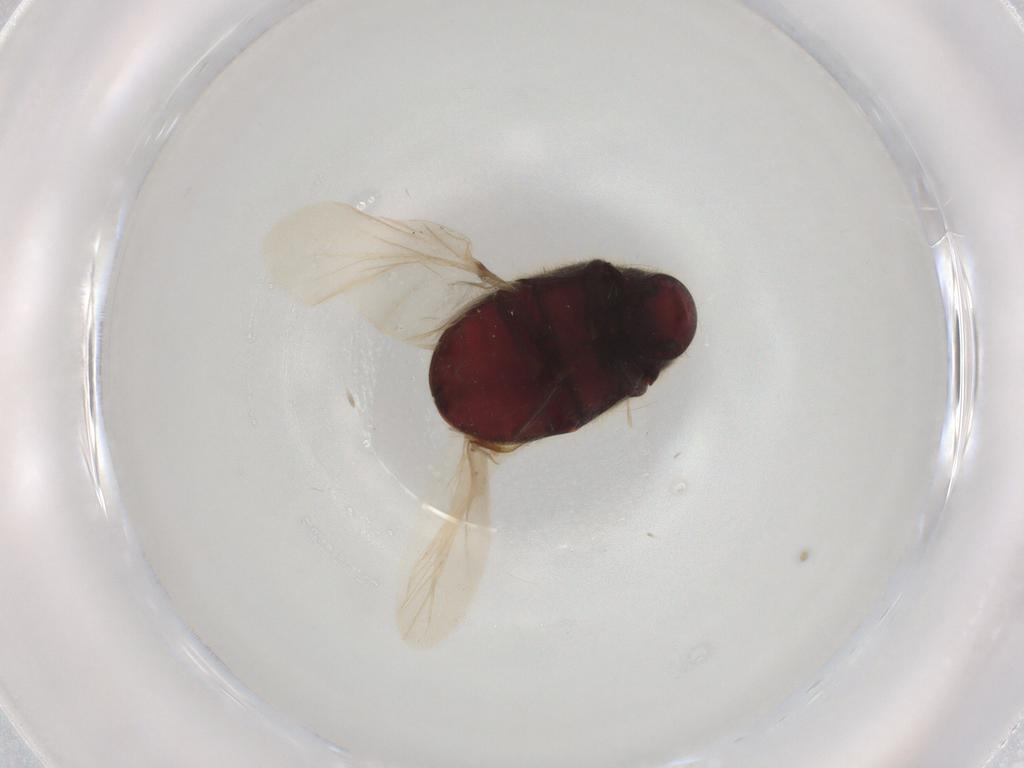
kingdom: Animalia
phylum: Arthropoda
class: Insecta
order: Coleoptera
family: Ptinidae
